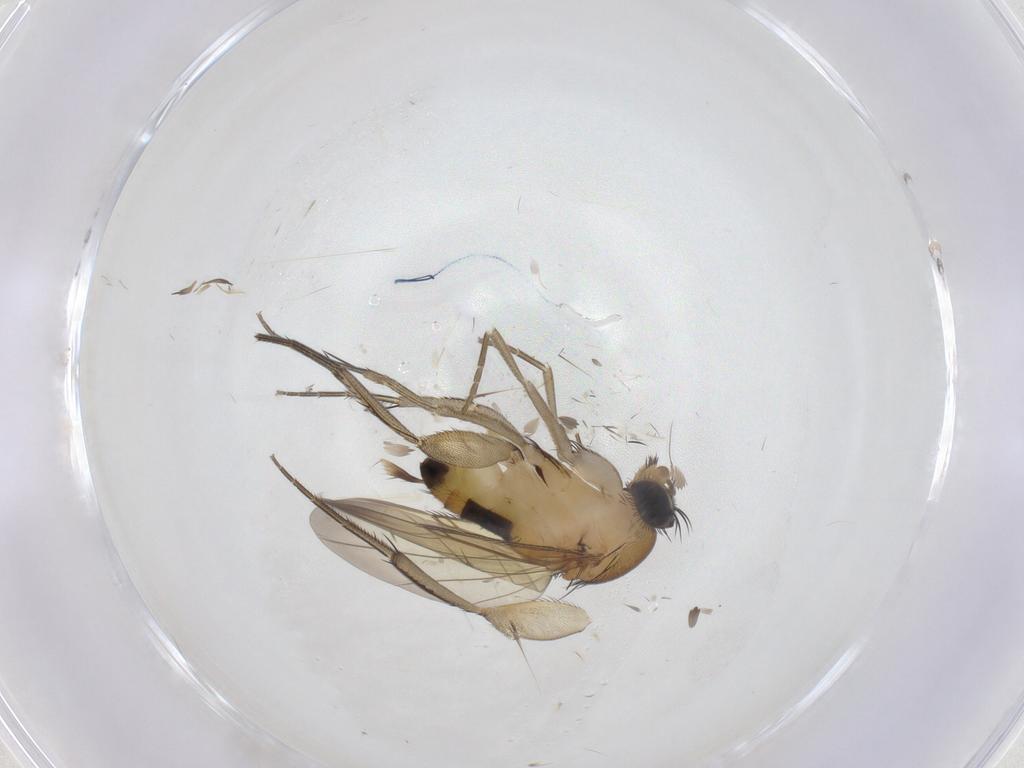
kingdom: Animalia
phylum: Arthropoda
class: Insecta
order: Diptera
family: Phoridae
